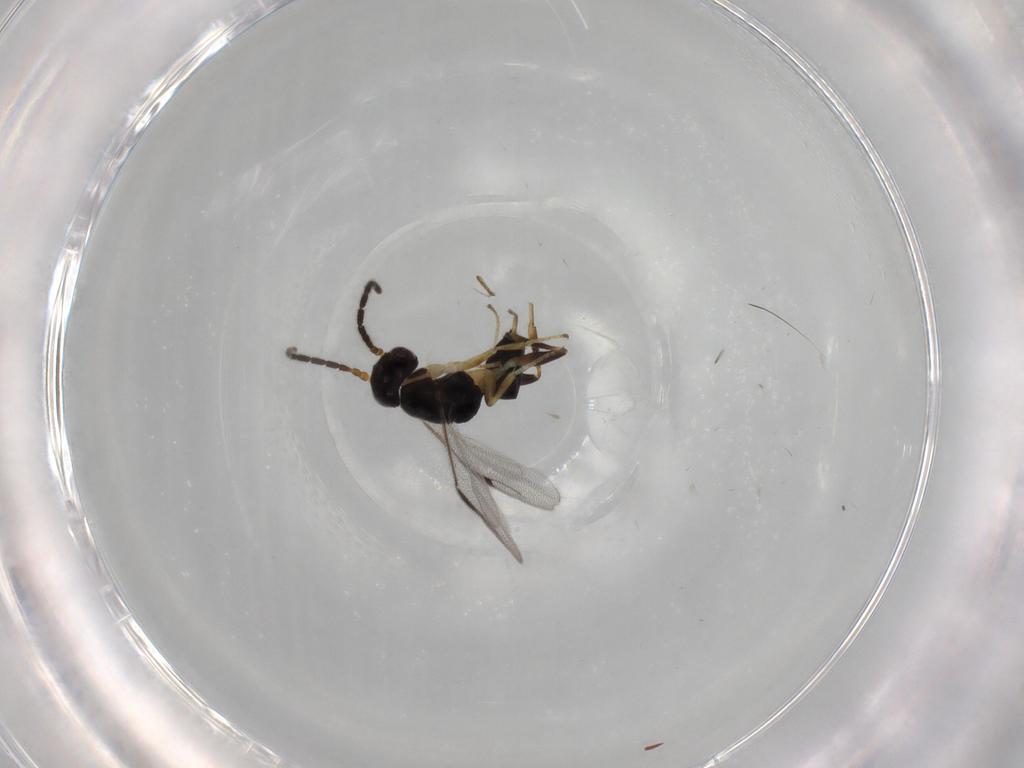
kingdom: Animalia
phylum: Arthropoda
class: Insecta
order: Hymenoptera
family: Dryinidae
